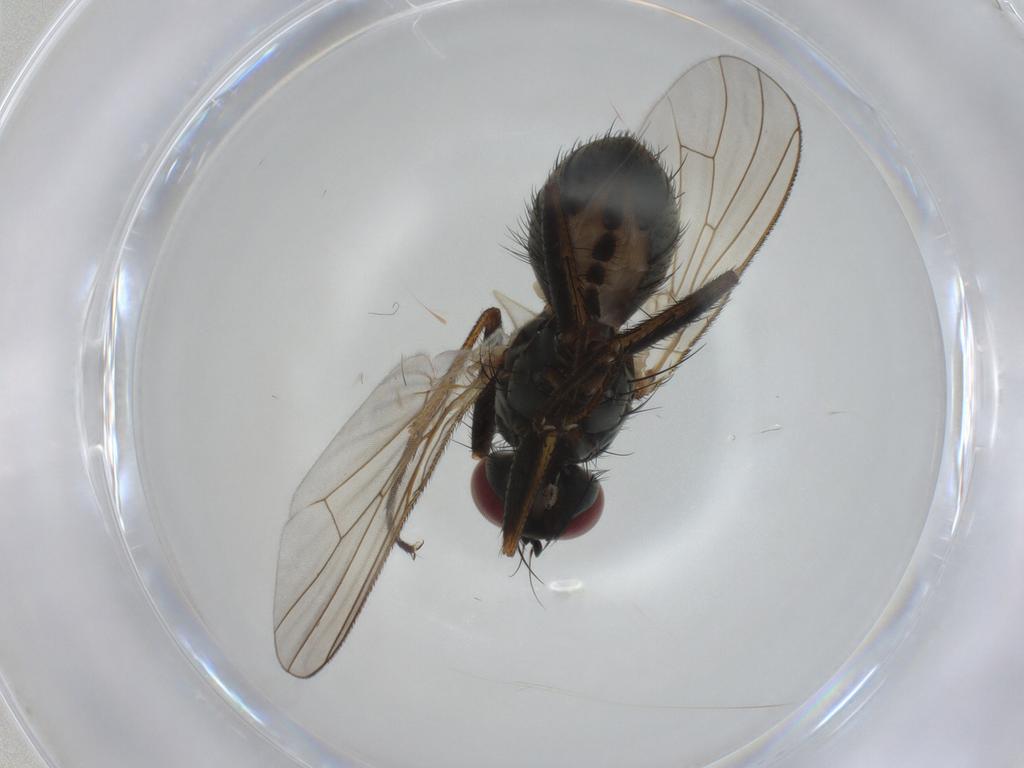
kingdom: Animalia
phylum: Arthropoda
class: Insecta
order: Diptera
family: Muscidae
